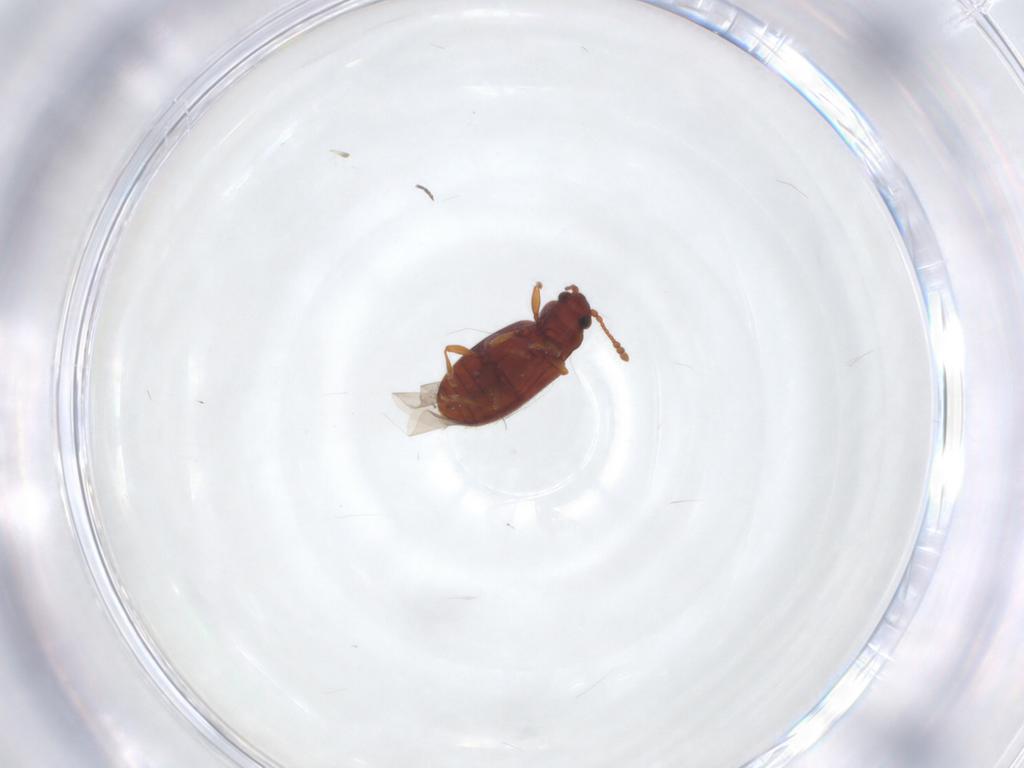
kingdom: Animalia
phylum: Arthropoda
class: Insecta
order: Coleoptera
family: Cryptophagidae
